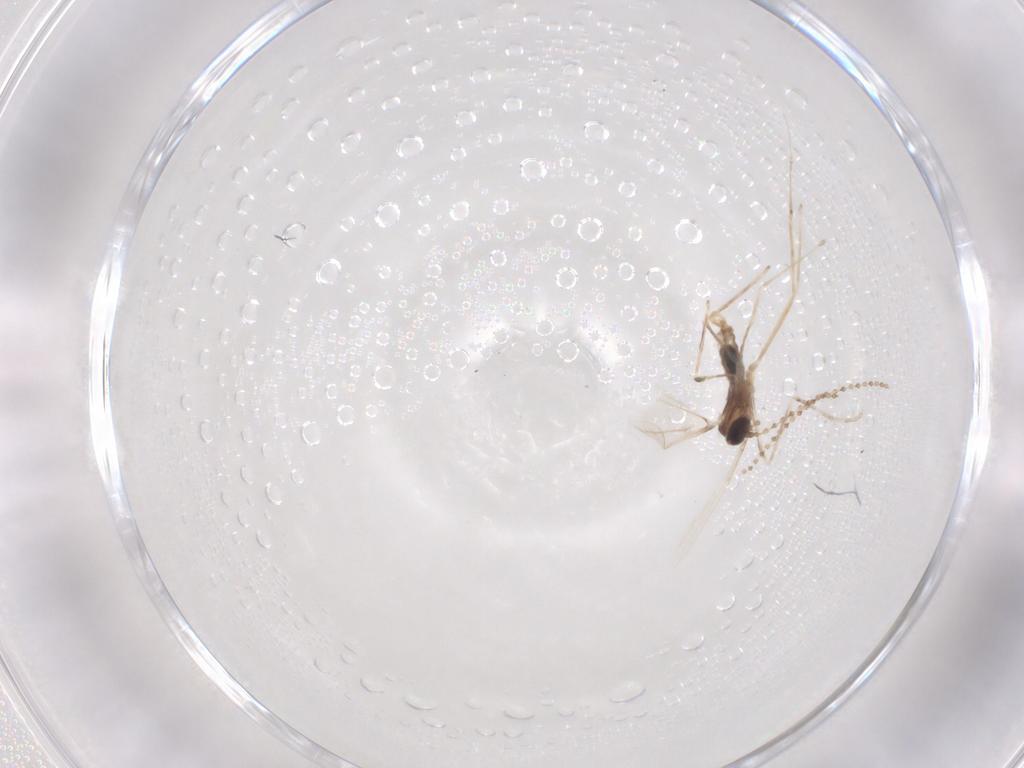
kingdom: Animalia
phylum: Arthropoda
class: Insecta
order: Diptera
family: Cecidomyiidae
